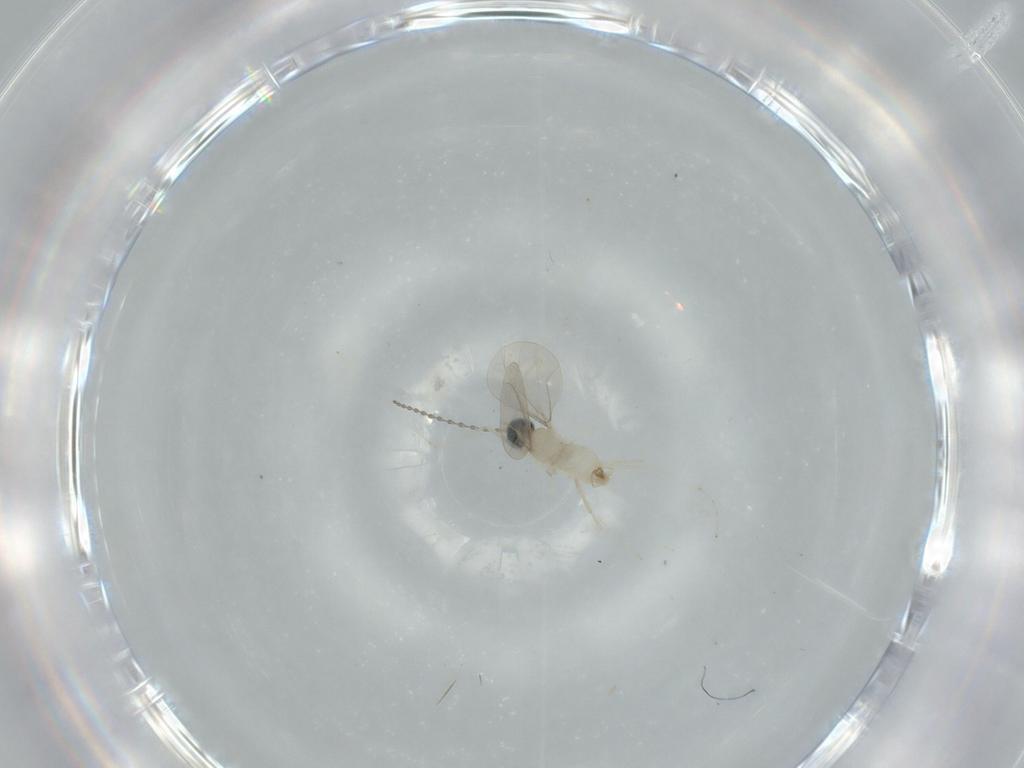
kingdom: Animalia
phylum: Arthropoda
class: Insecta
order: Diptera
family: Cecidomyiidae
